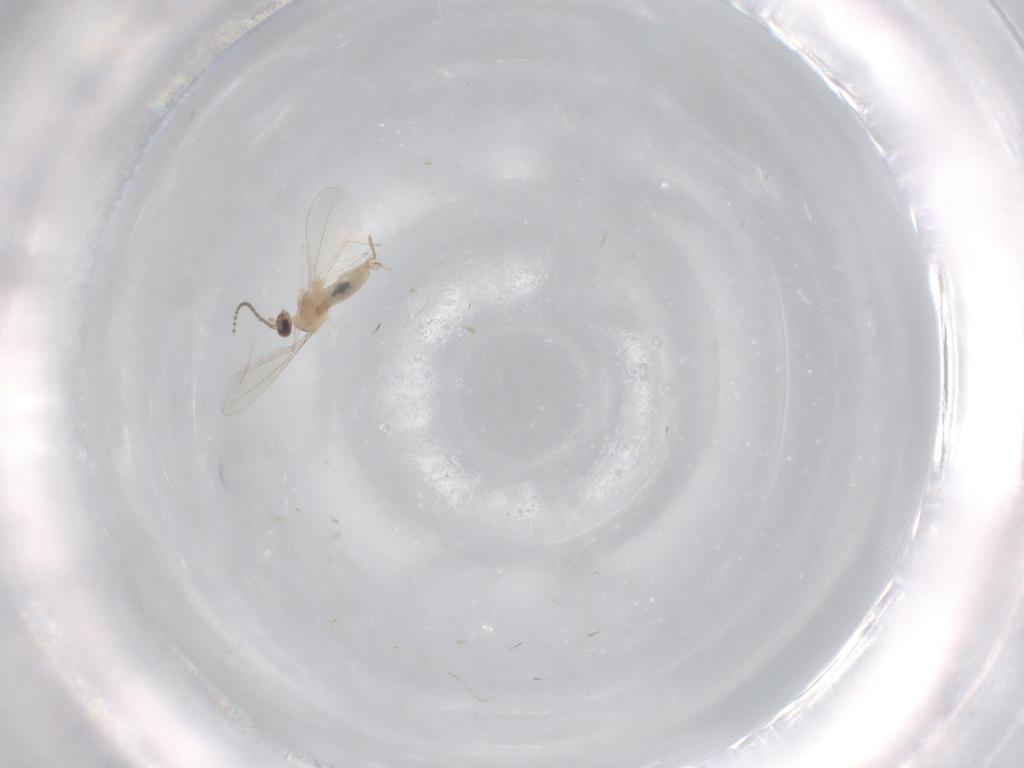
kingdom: Animalia
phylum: Arthropoda
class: Insecta
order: Diptera
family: Cecidomyiidae
